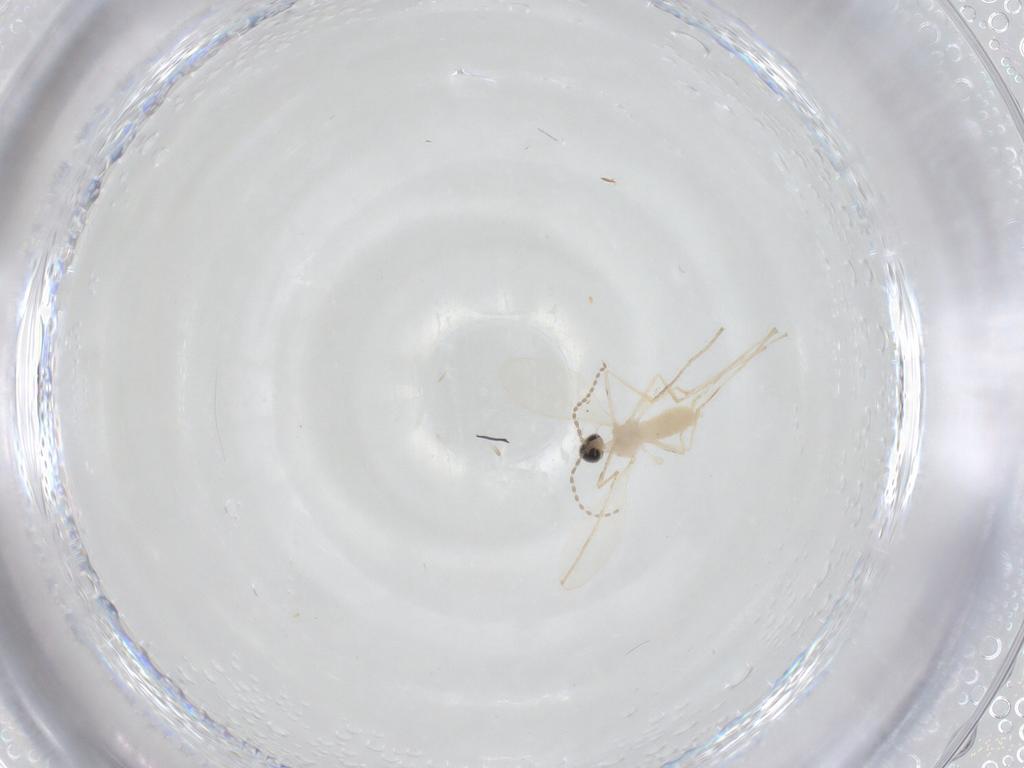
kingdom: Animalia
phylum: Arthropoda
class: Insecta
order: Diptera
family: Cecidomyiidae
